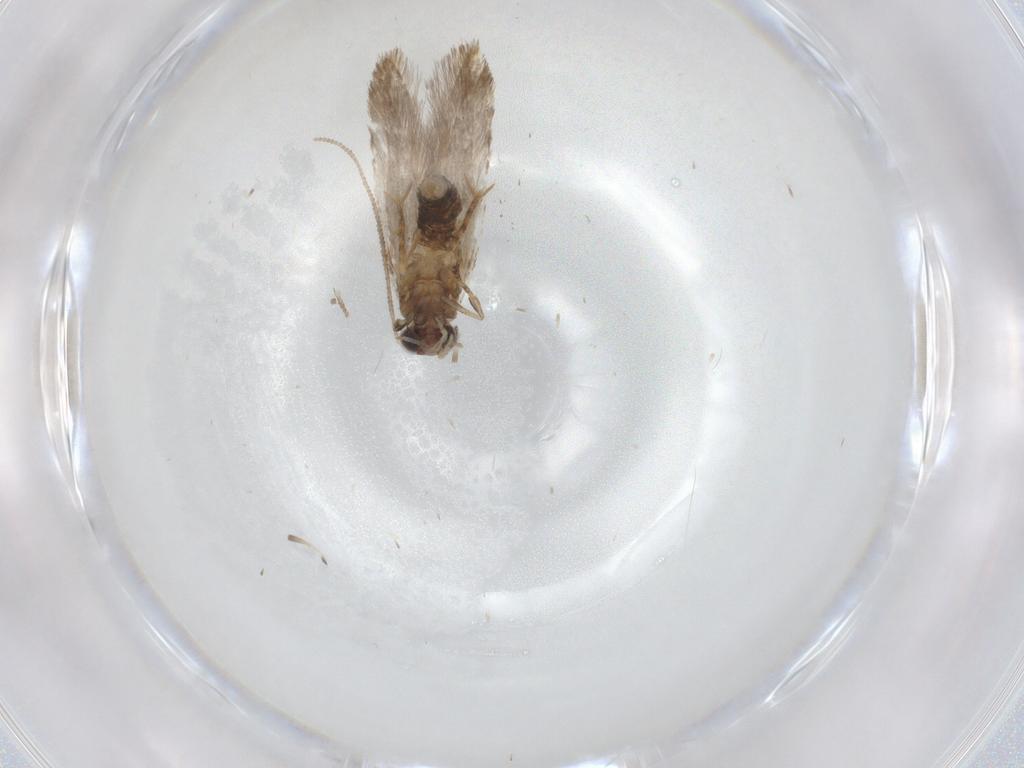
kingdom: Animalia
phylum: Arthropoda
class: Insecta
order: Lepidoptera
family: Tineidae
